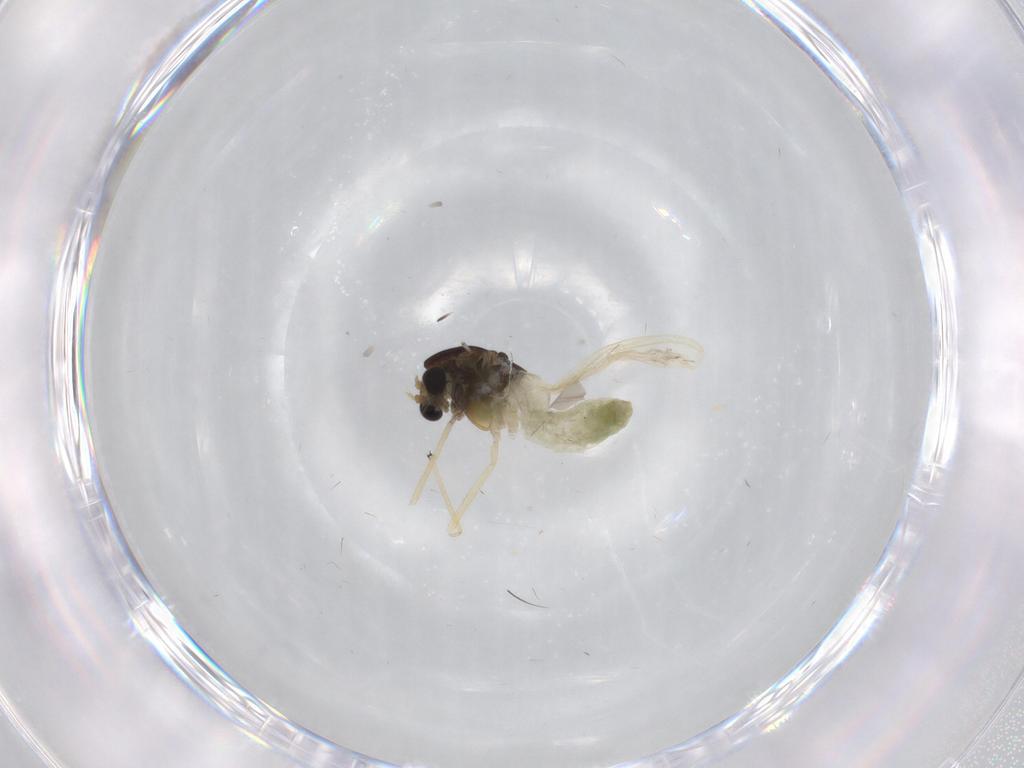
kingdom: Animalia
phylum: Arthropoda
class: Insecta
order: Diptera
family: Chironomidae
